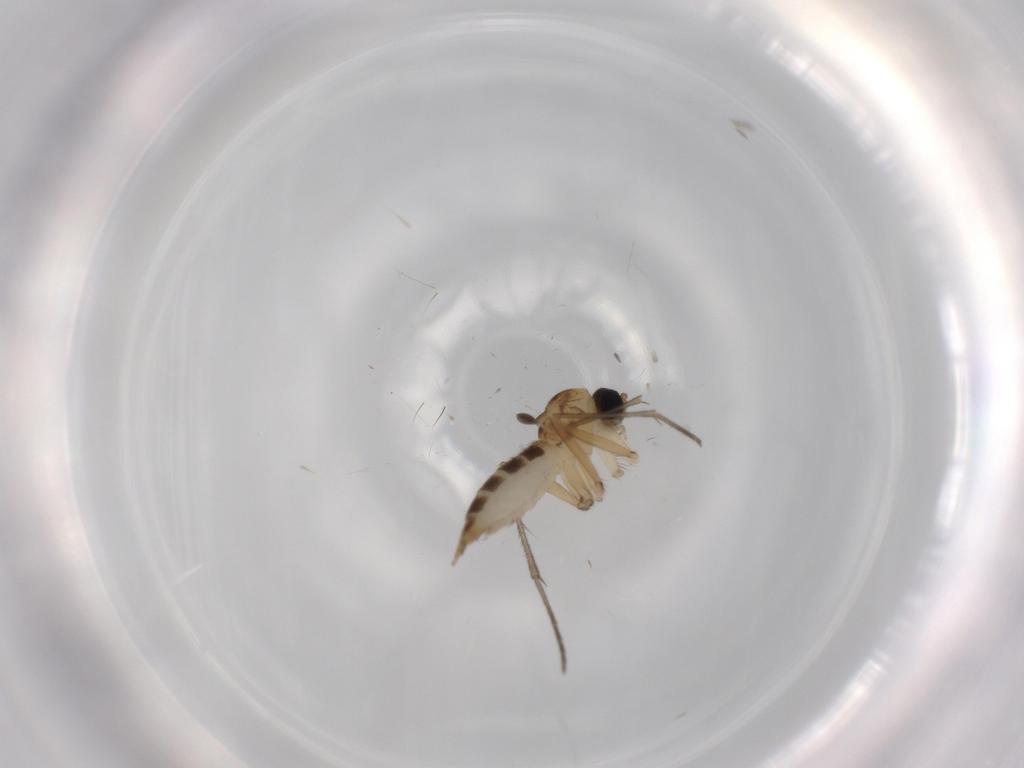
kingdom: Animalia
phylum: Arthropoda
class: Insecta
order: Diptera
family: Sciaridae
